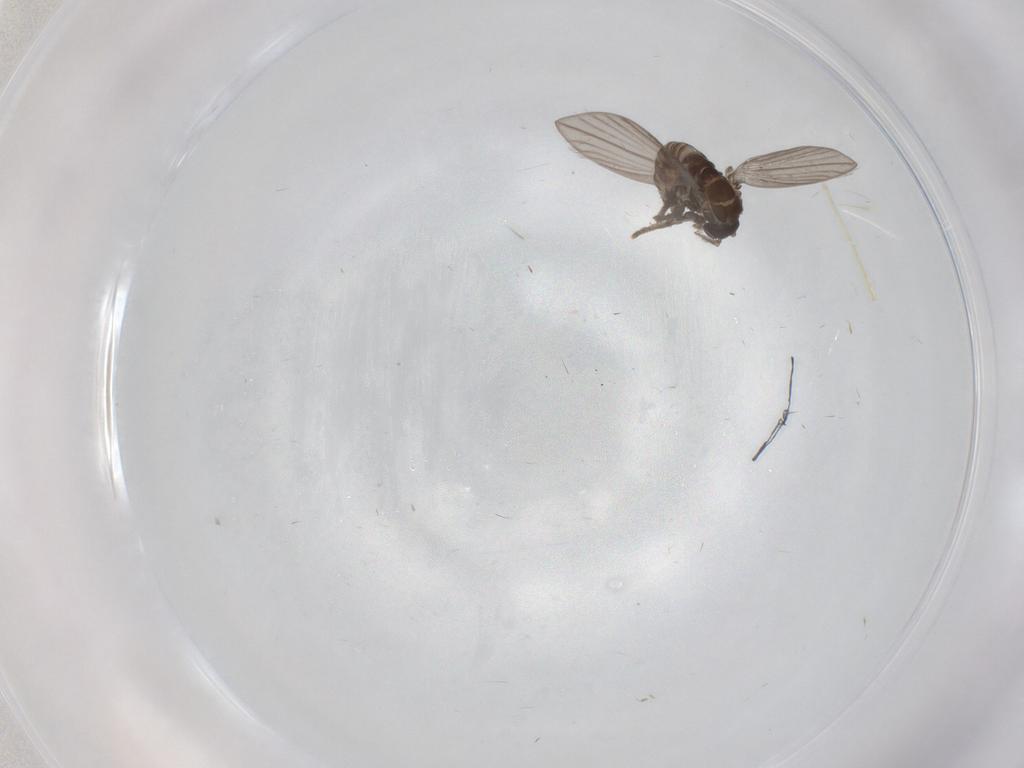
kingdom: Animalia
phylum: Arthropoda
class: Insecta
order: Diptera
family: Psychodidae
